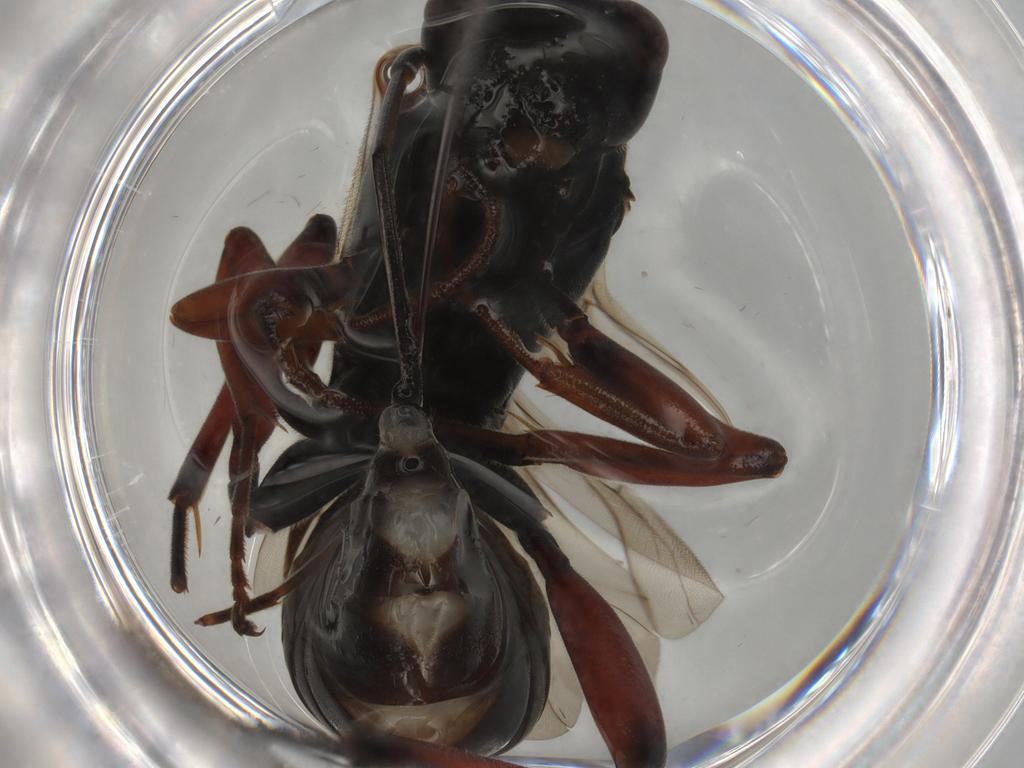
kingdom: Animalia
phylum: Arthropoda
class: Insecta
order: Hymenoptera
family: Ichneumonidae
